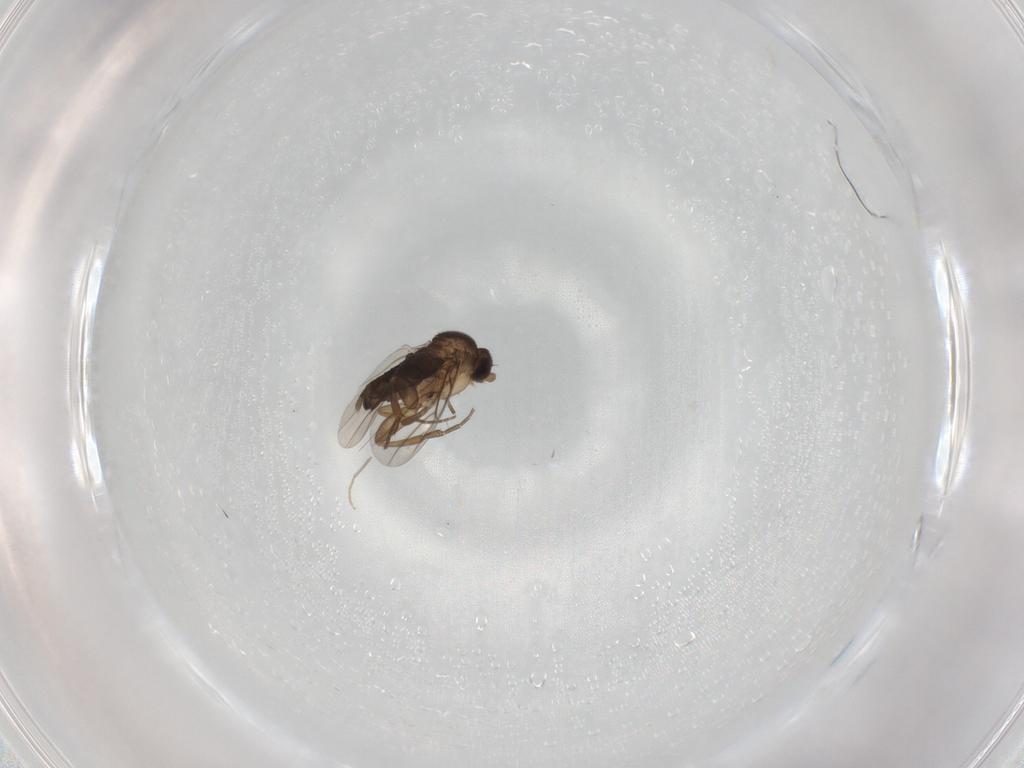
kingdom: Animalia
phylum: Arthropoda
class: Insecta
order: Diptera
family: Phoridae
